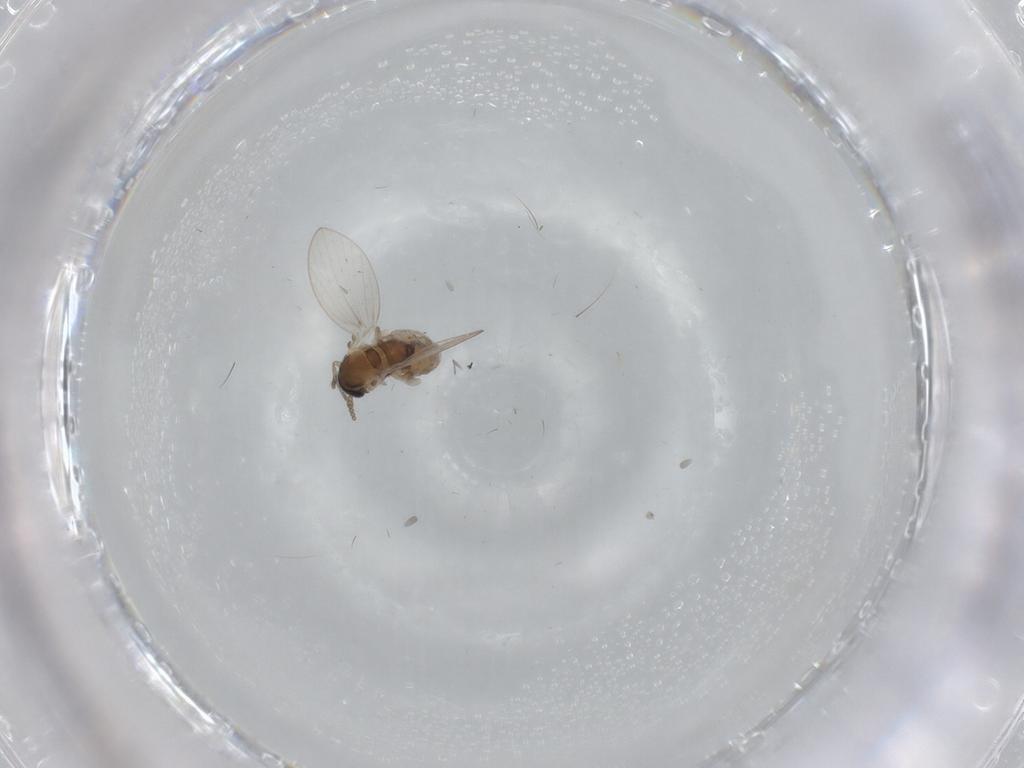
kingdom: Animalia
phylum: Arthropoda
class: Insecta
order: Diptera
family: Psychodidae
